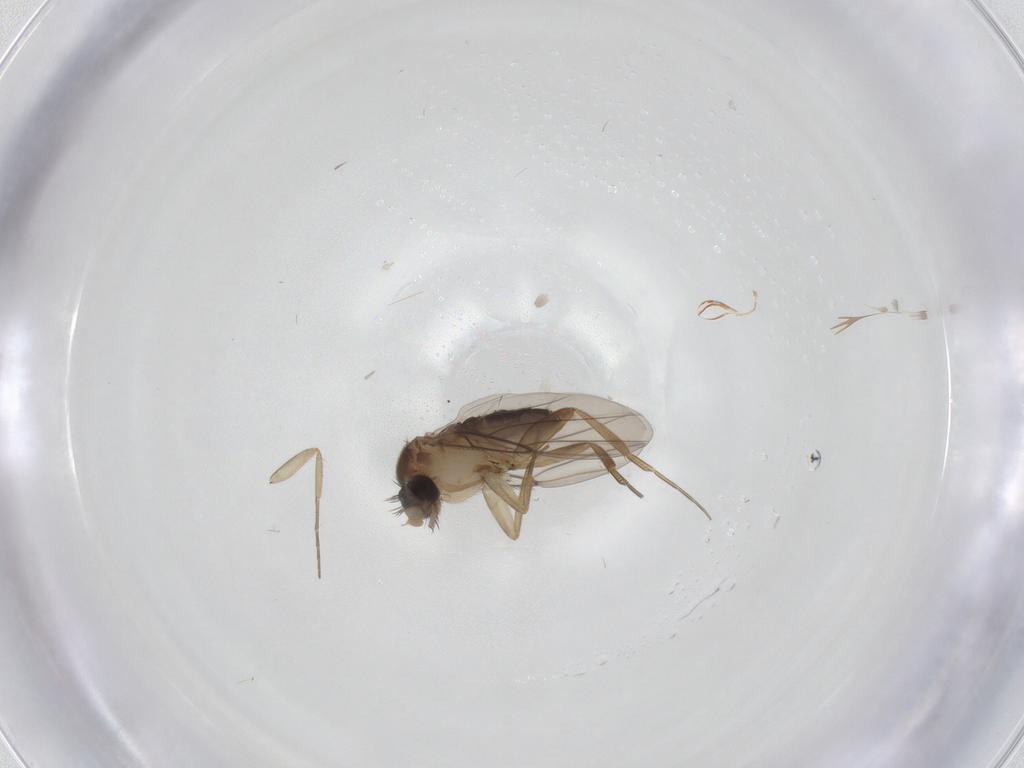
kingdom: Animalia
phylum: Arthropoda
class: Insecta
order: Diptera
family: Phoridae
